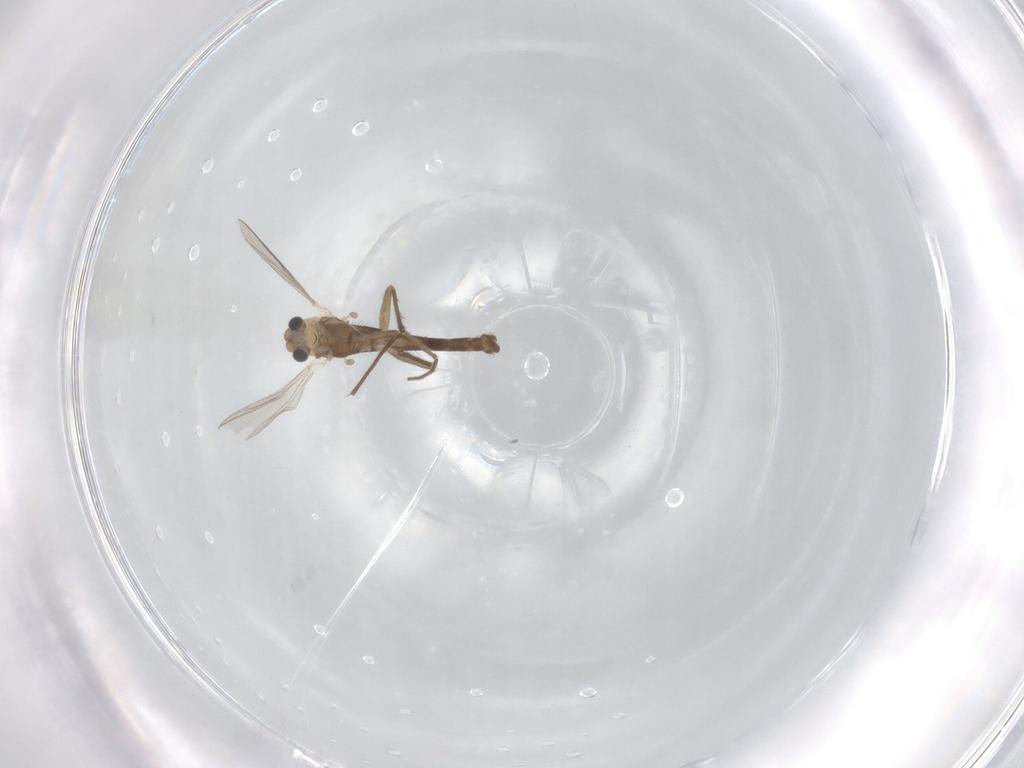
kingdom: Animalia
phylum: Arthropoda
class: Insecta
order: Diptera
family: Chironomidae
